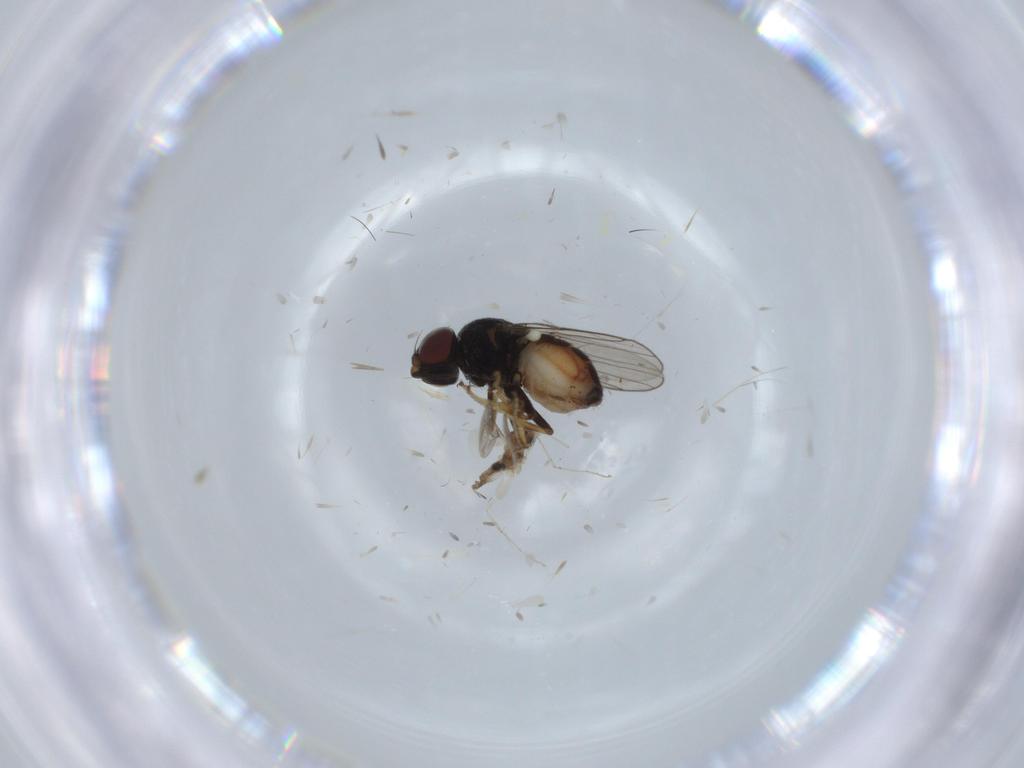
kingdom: Animalia
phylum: Arthropoda
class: Insecta
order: Diptera
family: Chloropidae
